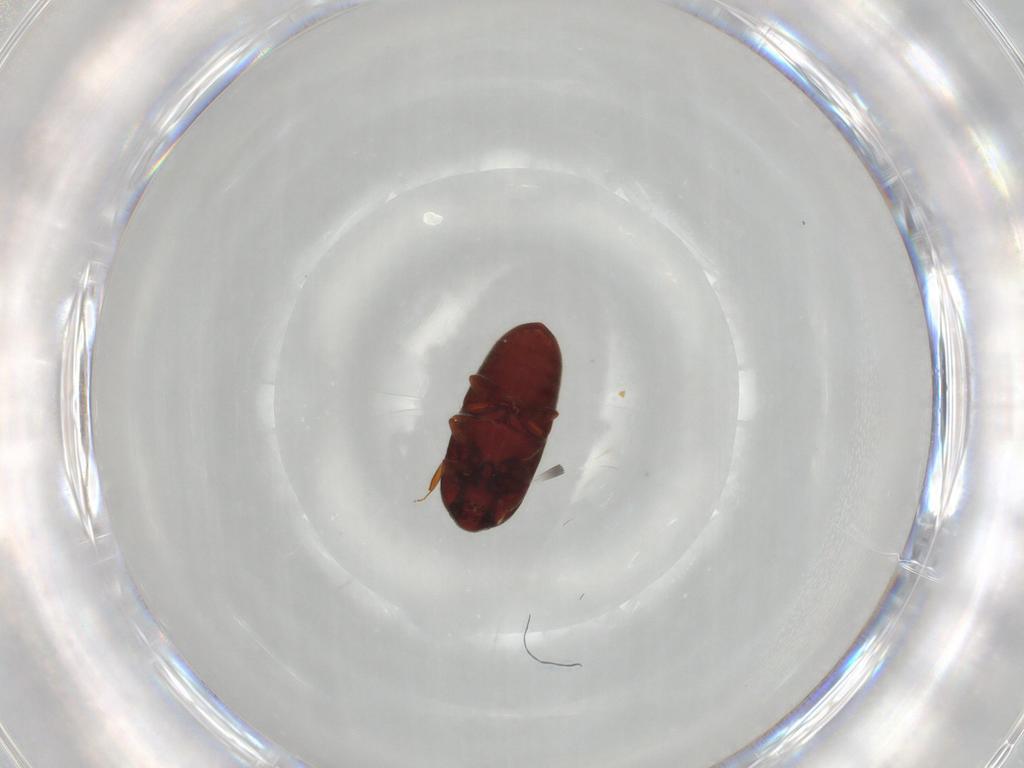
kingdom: Animalia
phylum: Arthropoda
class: Insecta
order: Coleoptera
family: Throscidae
